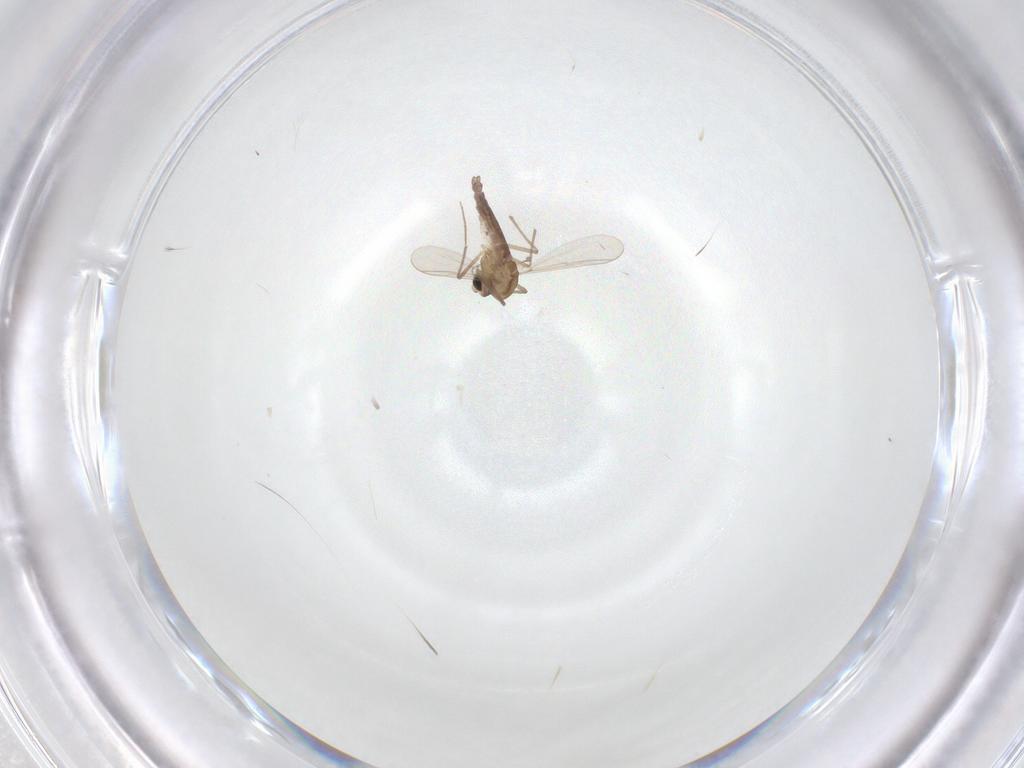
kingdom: Animalia
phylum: Arthropoda
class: Insecta
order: Diptera
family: Chironomidae
